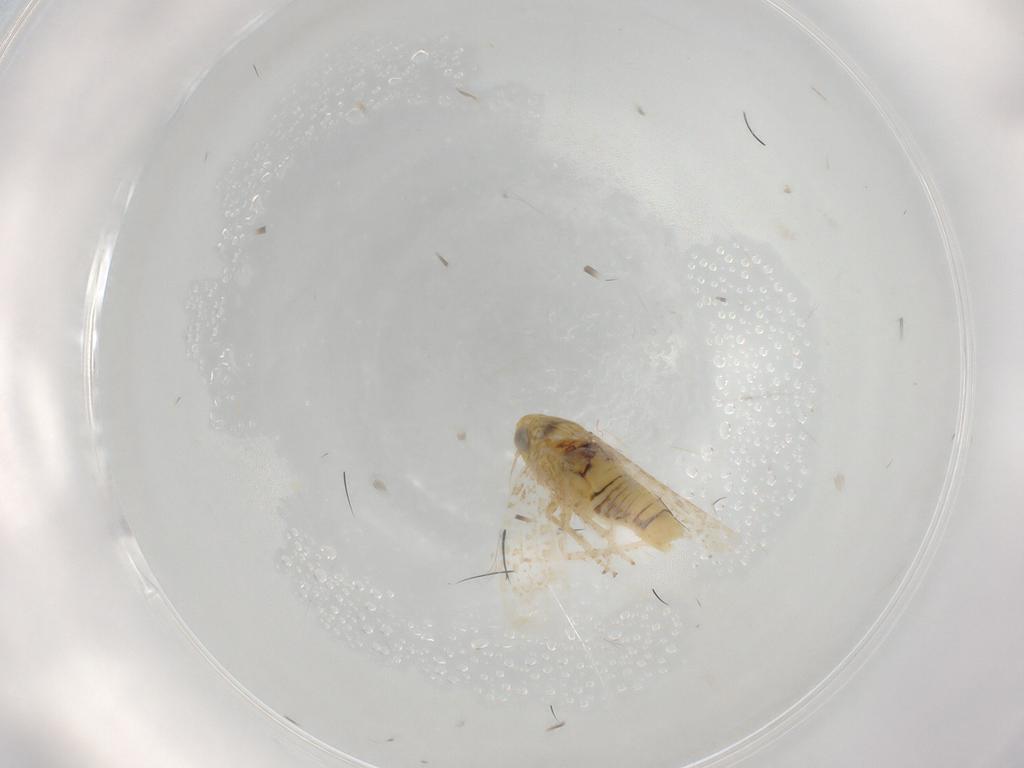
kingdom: Animalia
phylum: Arthropoda
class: Insecta
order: Hemiptera
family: Cicadellidae
